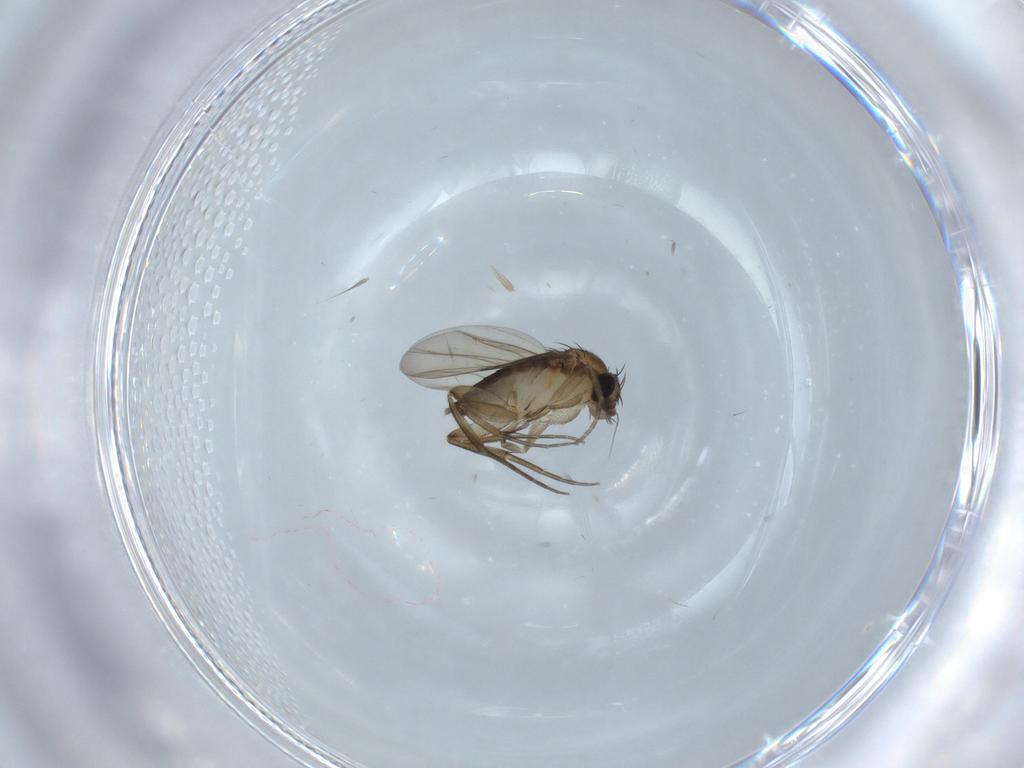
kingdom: Animalia
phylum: Arthropoda
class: Insecta
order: Diptera
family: Phoridae
